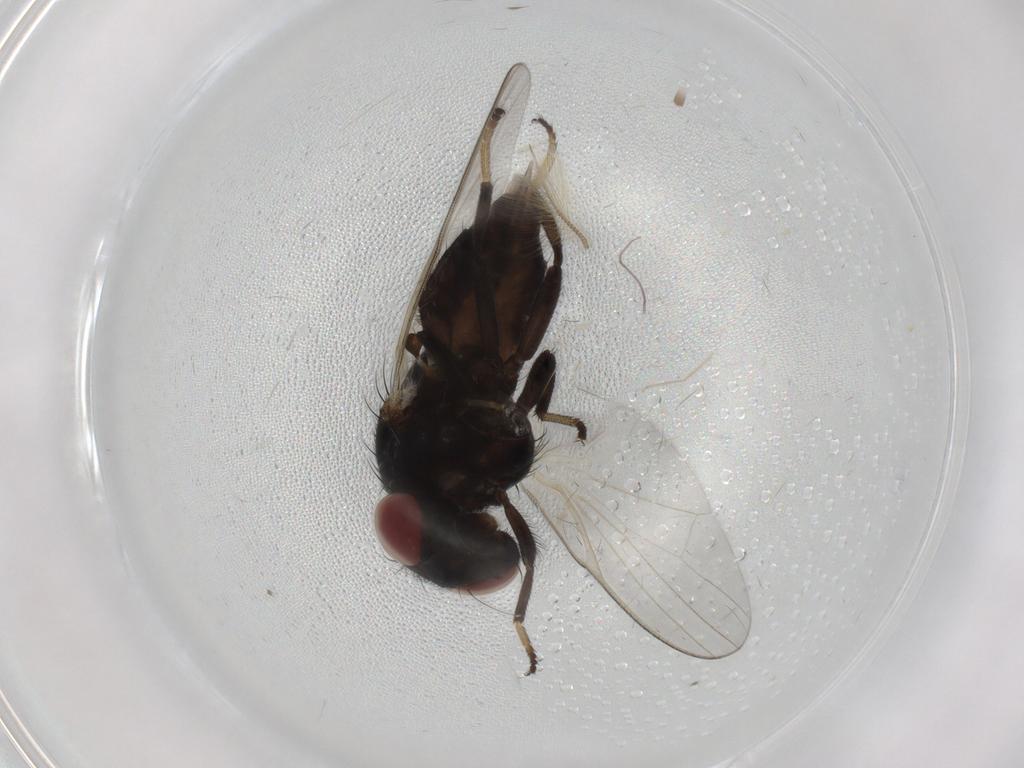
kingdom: Animalia
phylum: Arthropoda
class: Insecta
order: Diptera
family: Lonchaeidae
